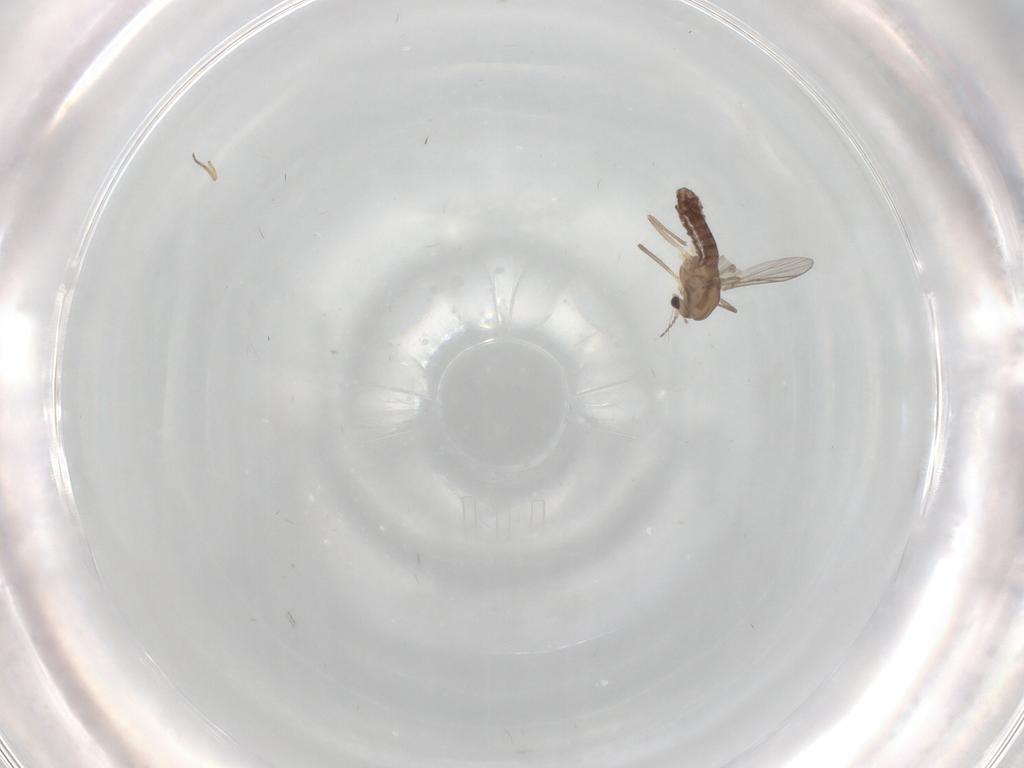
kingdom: Animalia
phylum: Arthropoda
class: Insecta
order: Diptera
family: Chironomidae
